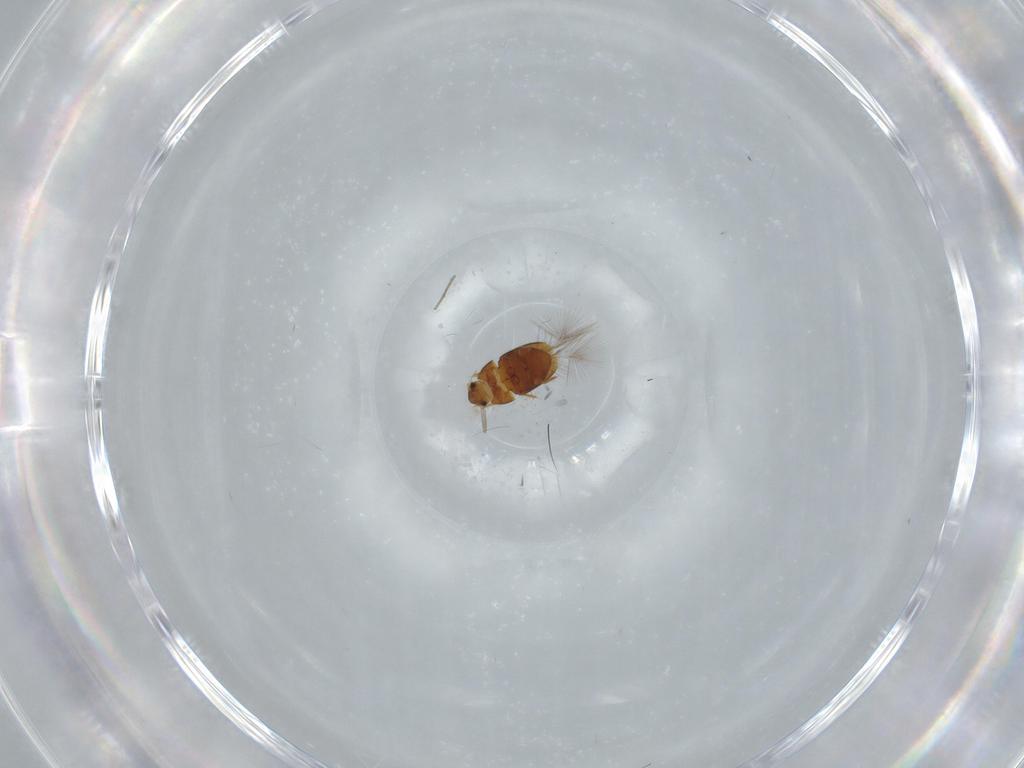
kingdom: Animalia
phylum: Arthropoda
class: Insecta
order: Coleoptera
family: Ptiliidae
